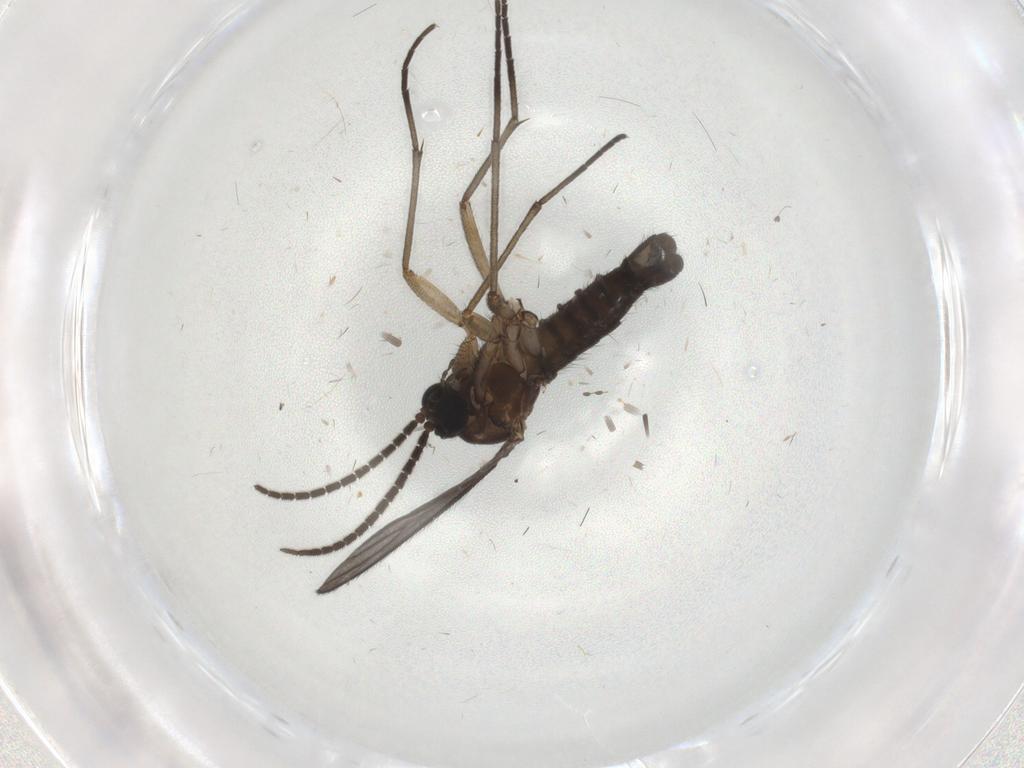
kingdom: Animalia
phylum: Arthropoda
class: Insecta
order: Diptera
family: Sciaridae
